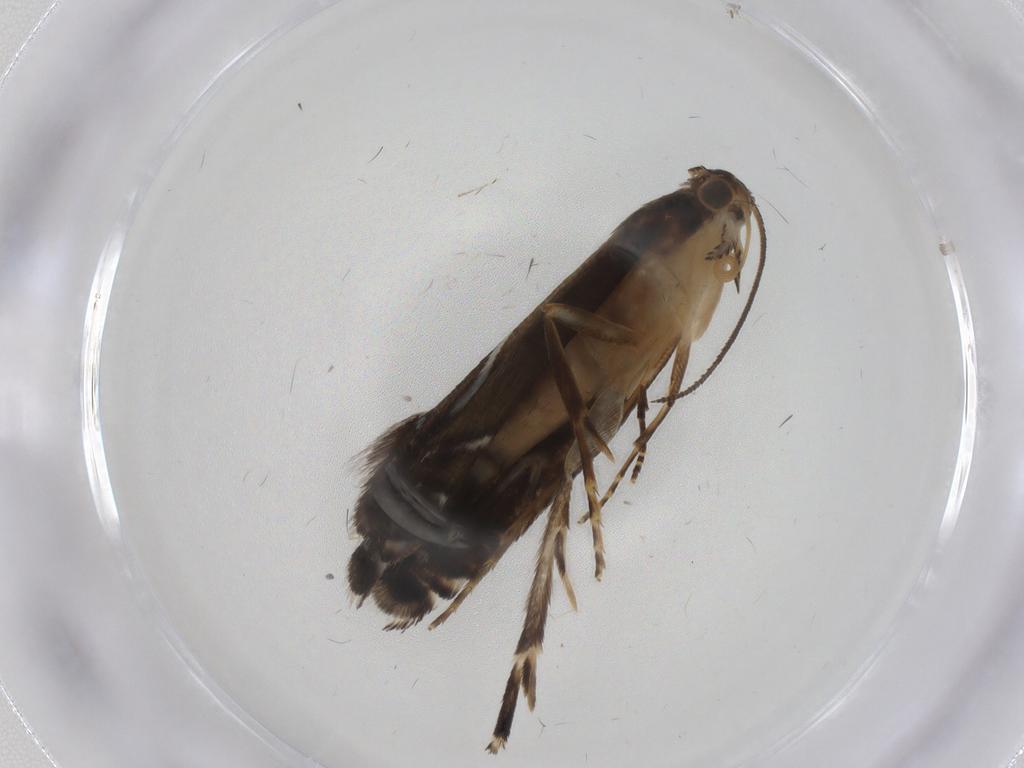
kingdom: Animalia
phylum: Arthropoda
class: Insecta
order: Lepidoptera
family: Glyphipterigidae
